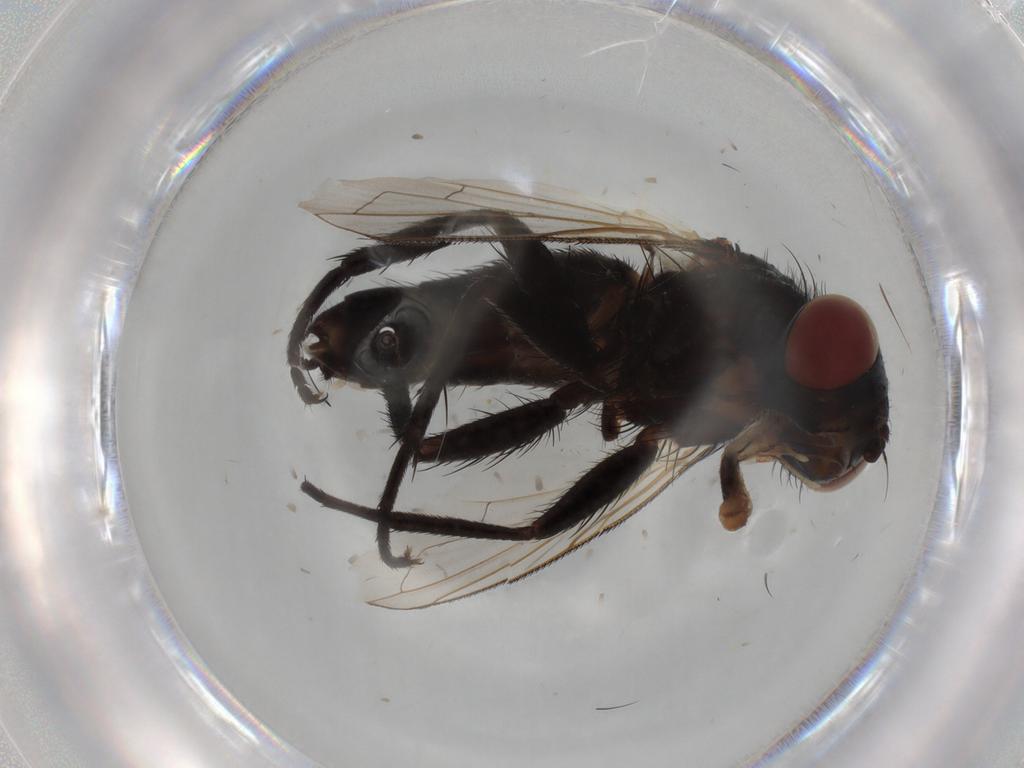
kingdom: Animalia
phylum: Arthropoda
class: Insecta
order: Diptera
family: Tachinidae
